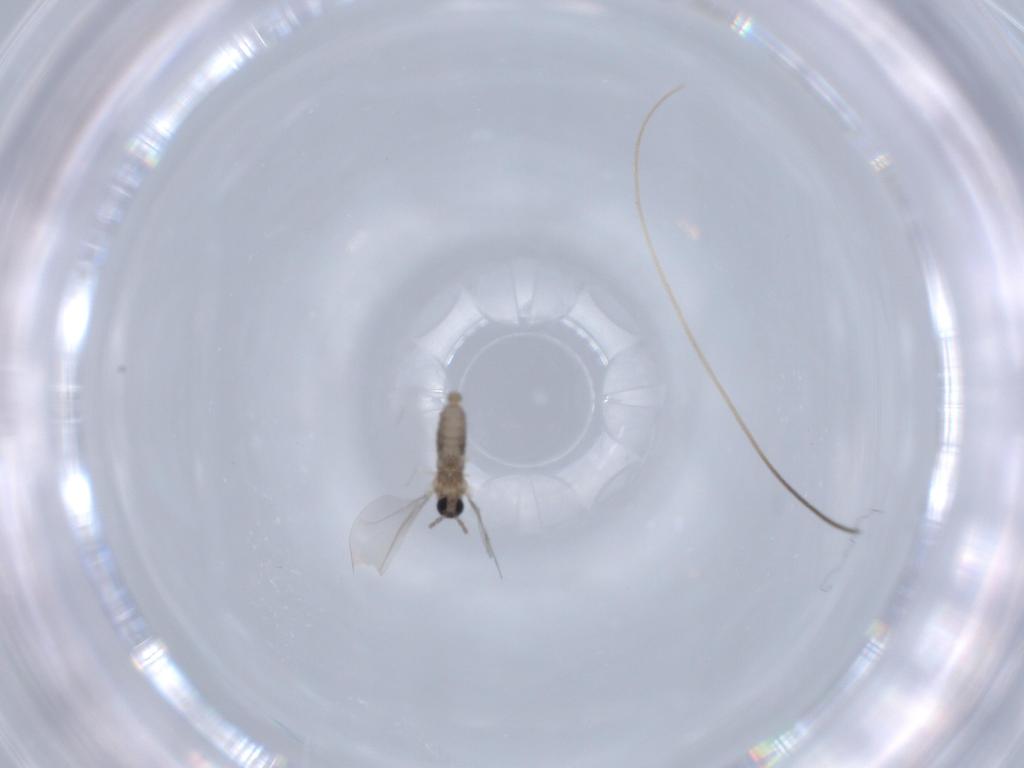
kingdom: Animalia
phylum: Arthropoda
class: Insecta
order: Diptera
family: Cecidomyiidae
